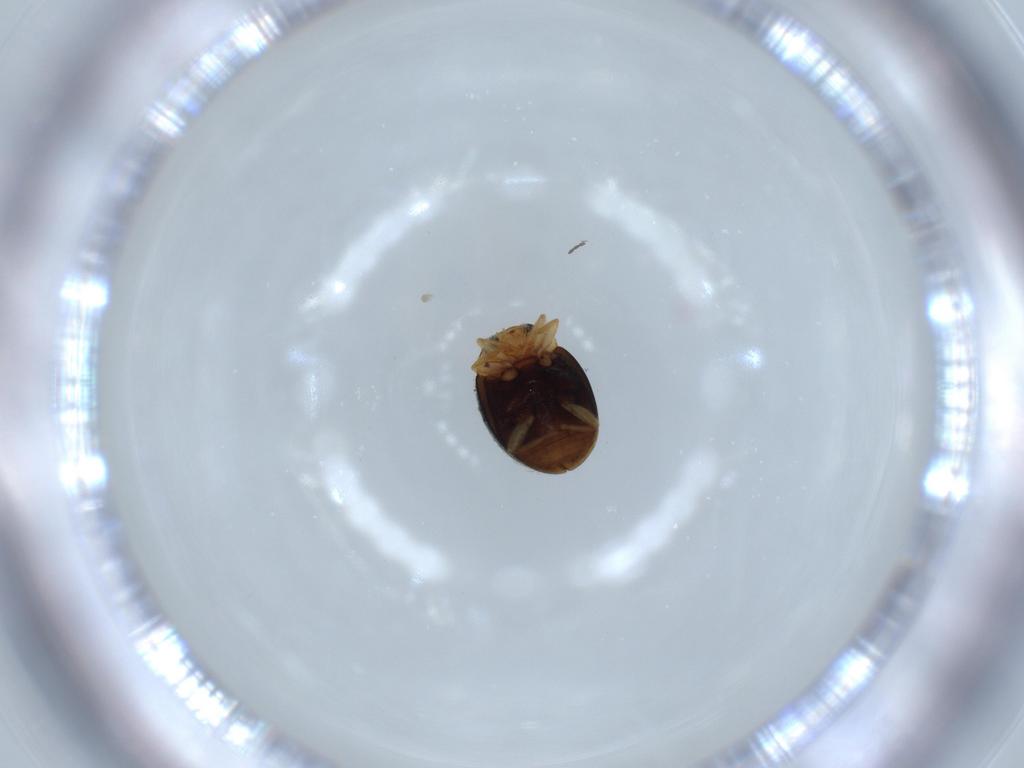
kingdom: Animalia
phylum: Arthropoda
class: Insecta
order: Coleoptera
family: Coccinellidae
